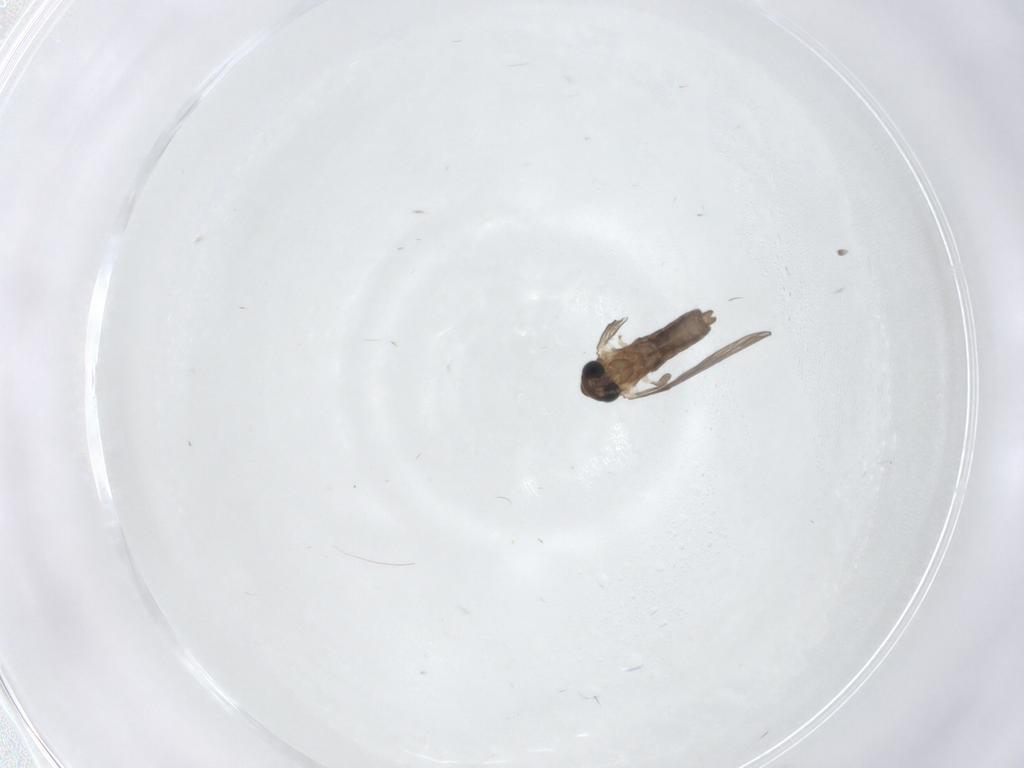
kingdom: Animalia
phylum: Arthropoda
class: Insecta
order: Diptera
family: Psychodidae
